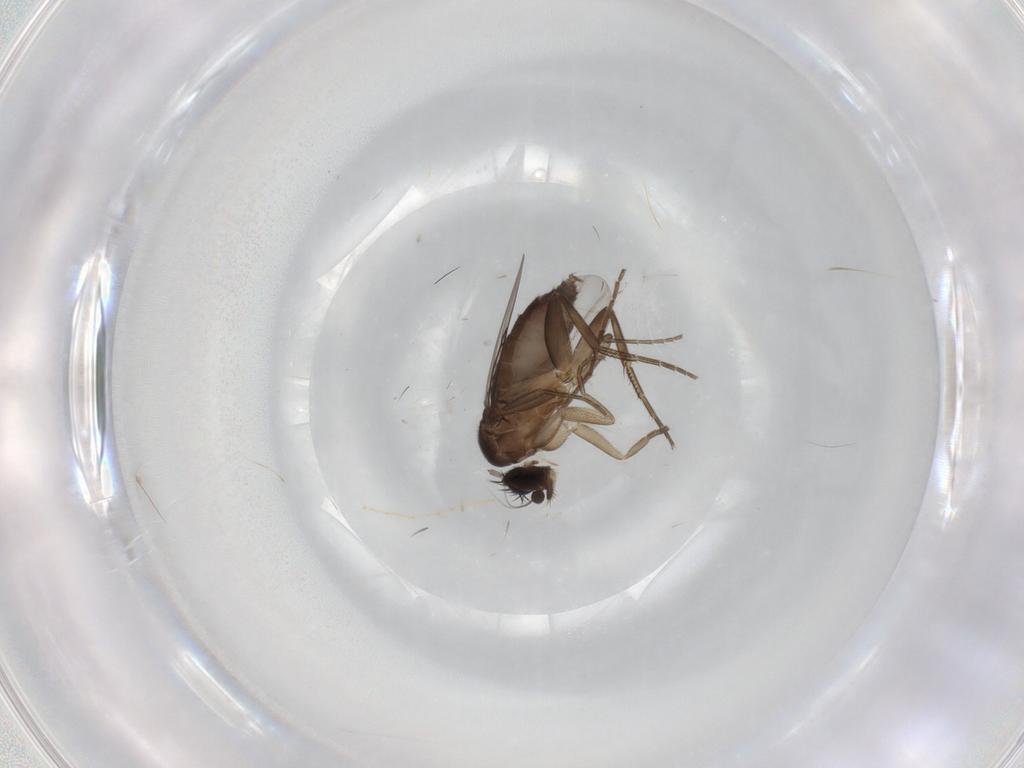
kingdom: Animalia
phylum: Arthropoda
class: Insecta
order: Diptera
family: Phoridae
